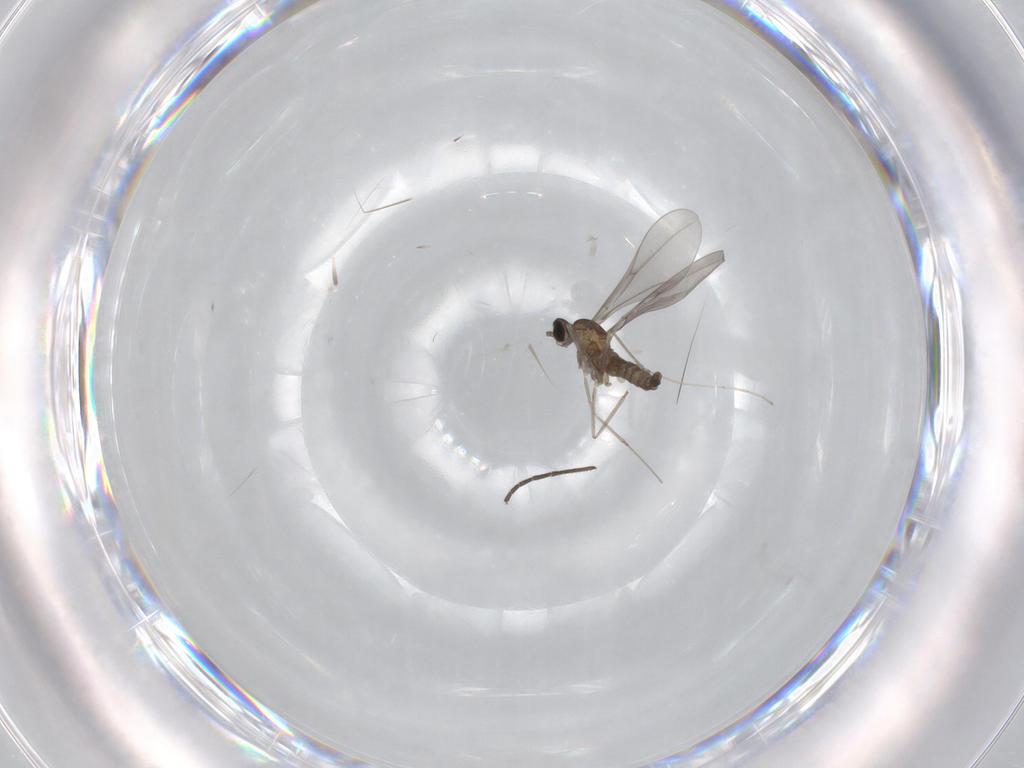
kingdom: Animalia
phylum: Arthropoda
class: Insecta
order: Diptera
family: Cecidomyiidae
